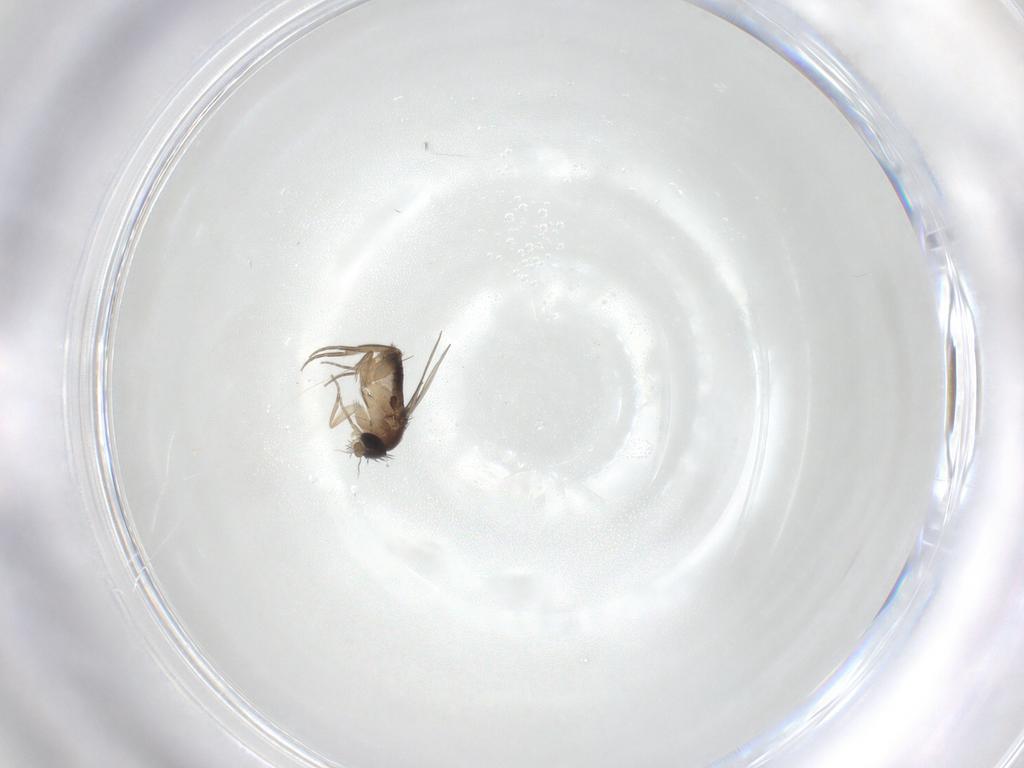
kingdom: Animalia
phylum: Arthropoda
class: Insecta
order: Diptera
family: Phoridae
